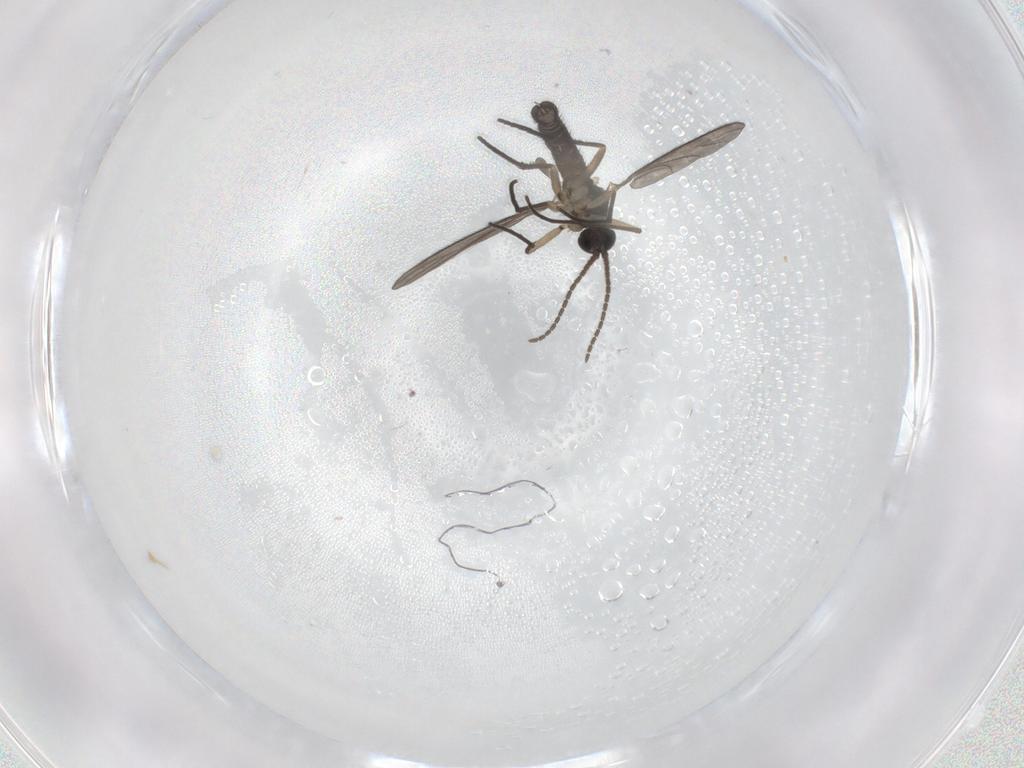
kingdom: Animalia
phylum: Arthropoda
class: Insecta
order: Diptera
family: Sciaridae
